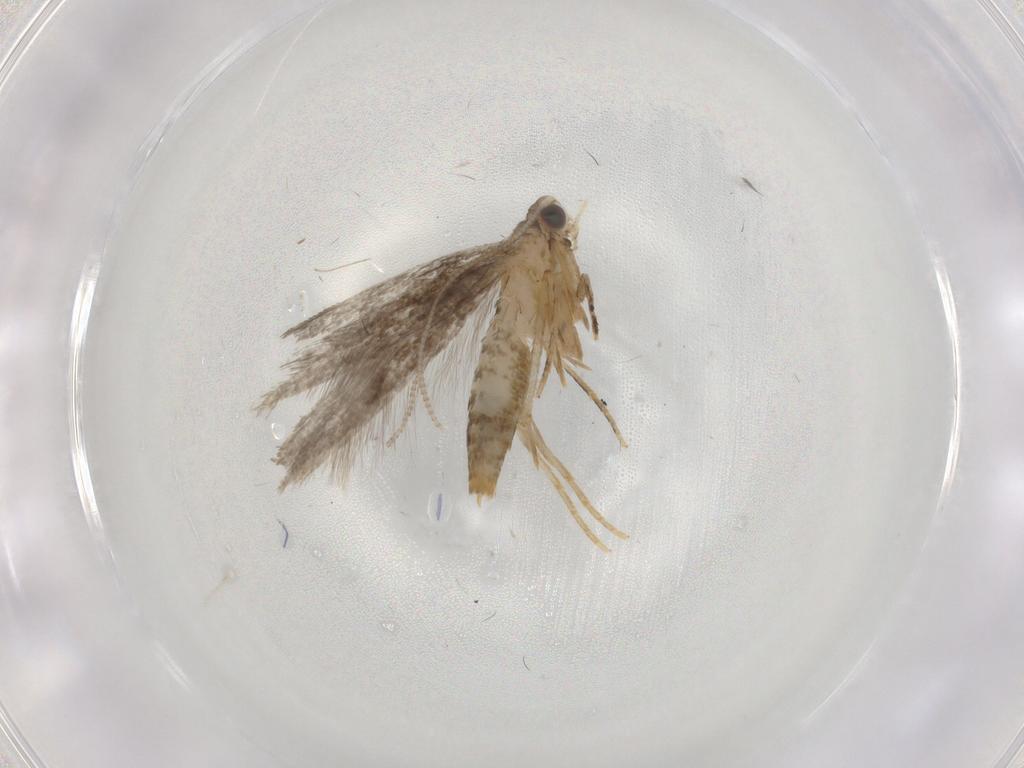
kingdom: Animalia
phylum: Arthropoda
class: Insecta
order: Lepidoptera
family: Tineidae
